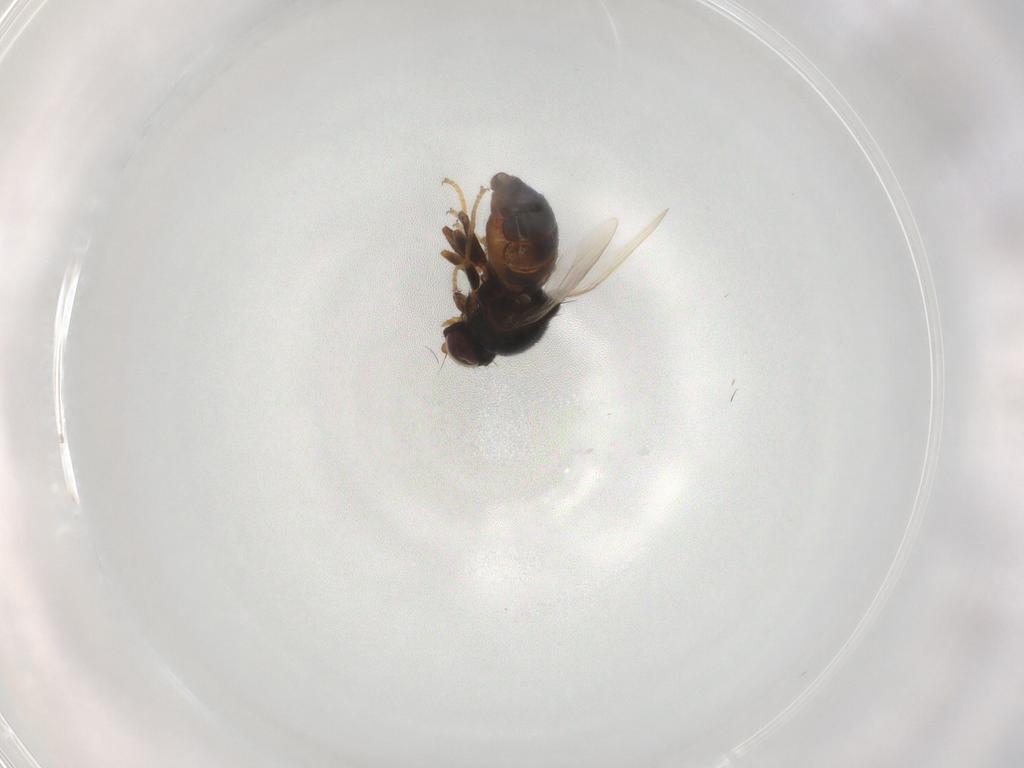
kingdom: Animalia
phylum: Arthropoda
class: Insecta
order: Diptera
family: Chloropidae
